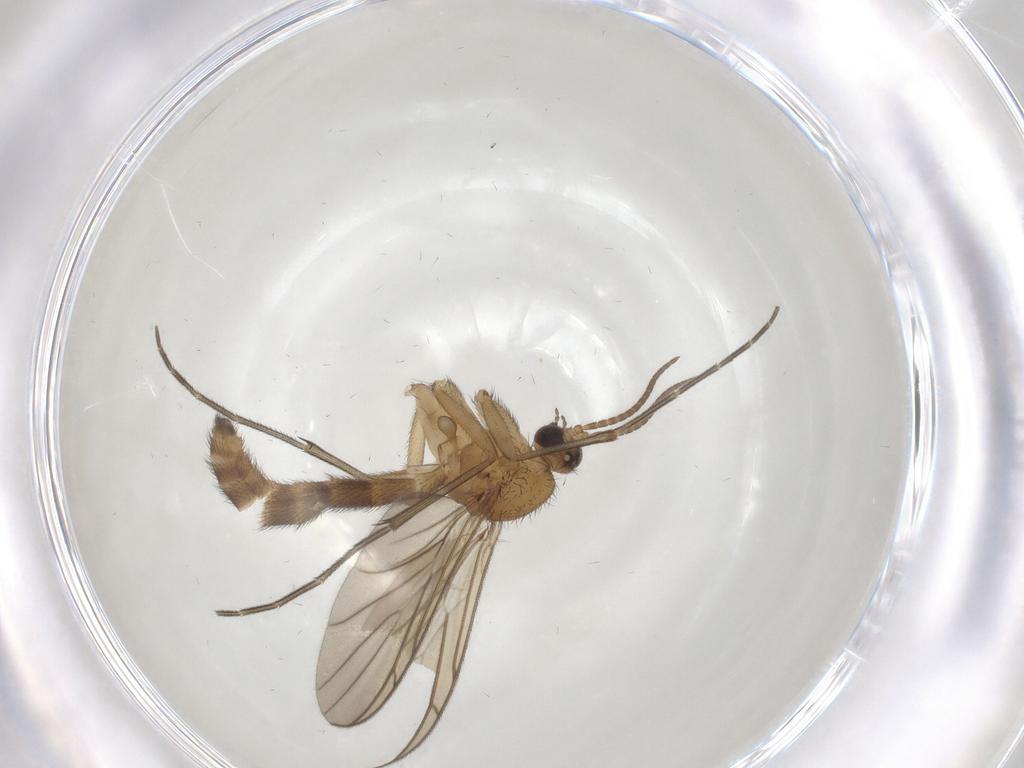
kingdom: Animalia
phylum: Arthropoda
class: Insecta
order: Diptera
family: Keroplatidae
